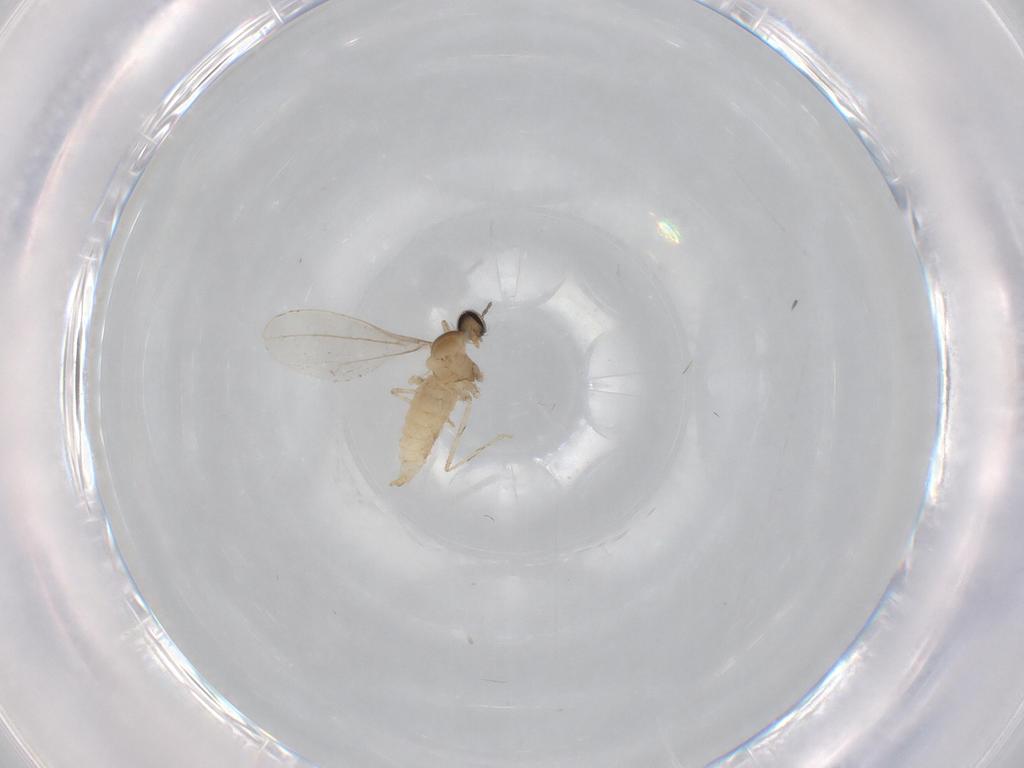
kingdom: Animalia
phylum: Arthropoda
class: Insecta
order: Diptera
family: Cecidomyiidae
